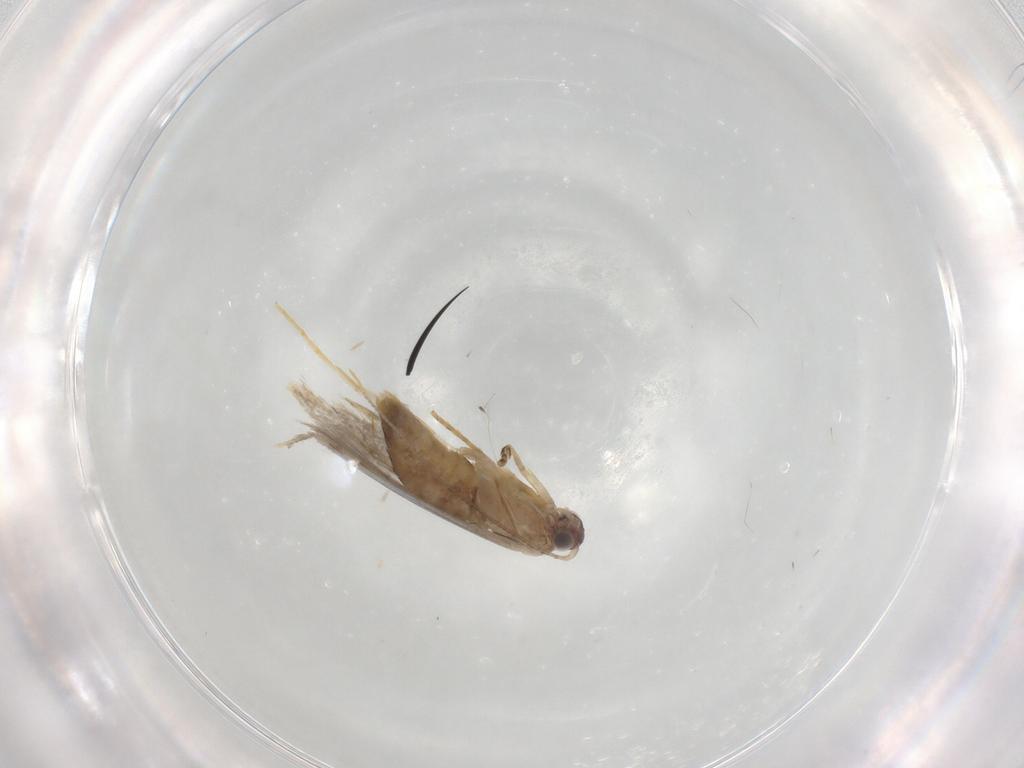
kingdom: Animalia
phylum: Arthropoda
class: Insecta
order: Lepidoptera
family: Tineidae
